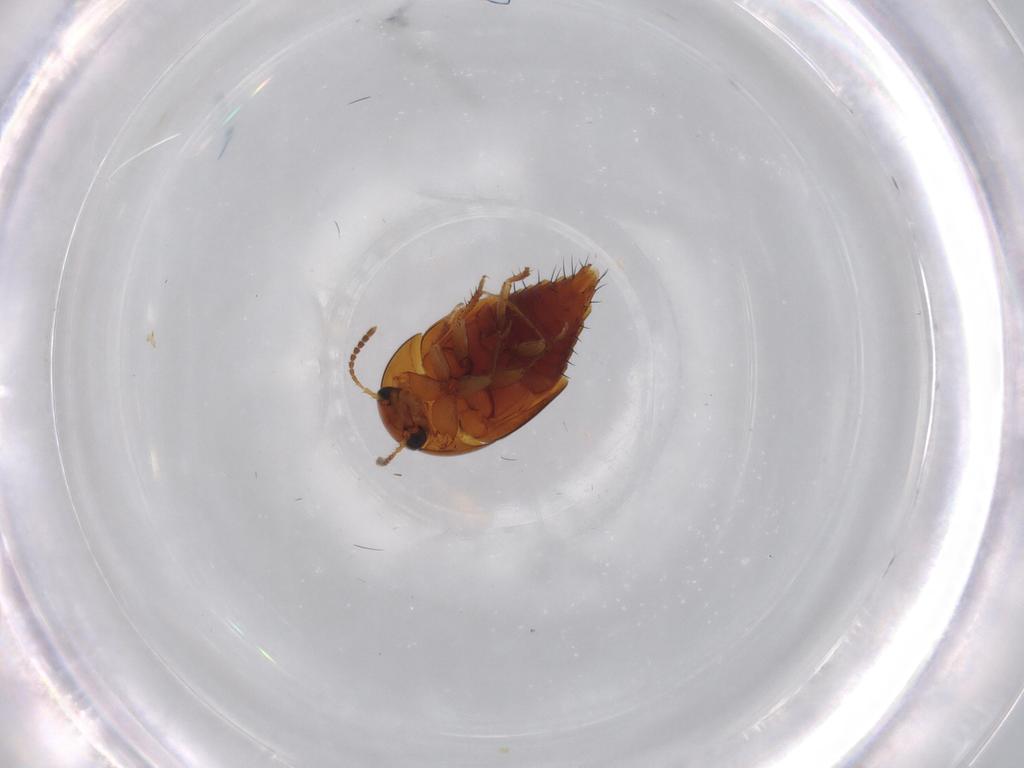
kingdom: Animalia
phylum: Arthropoda
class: Insecta
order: Coleoptera
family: Staphylinidae
